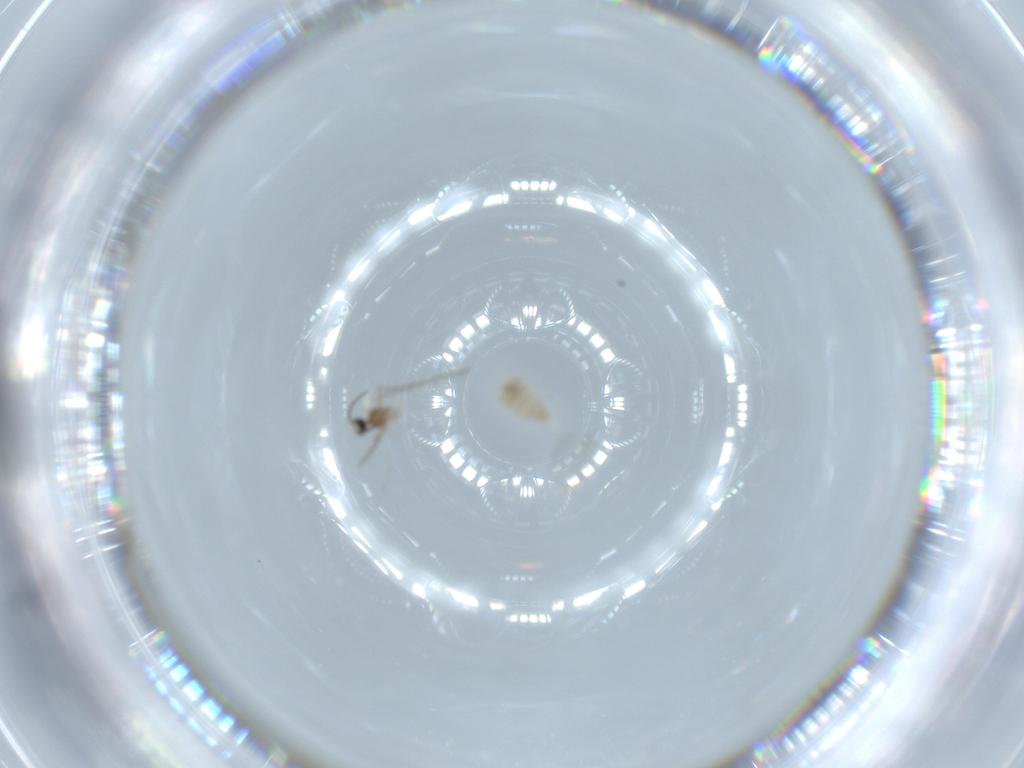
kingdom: Animalia
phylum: Arthropoda
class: Insecta
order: Diptera
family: Cecidomyiidae
